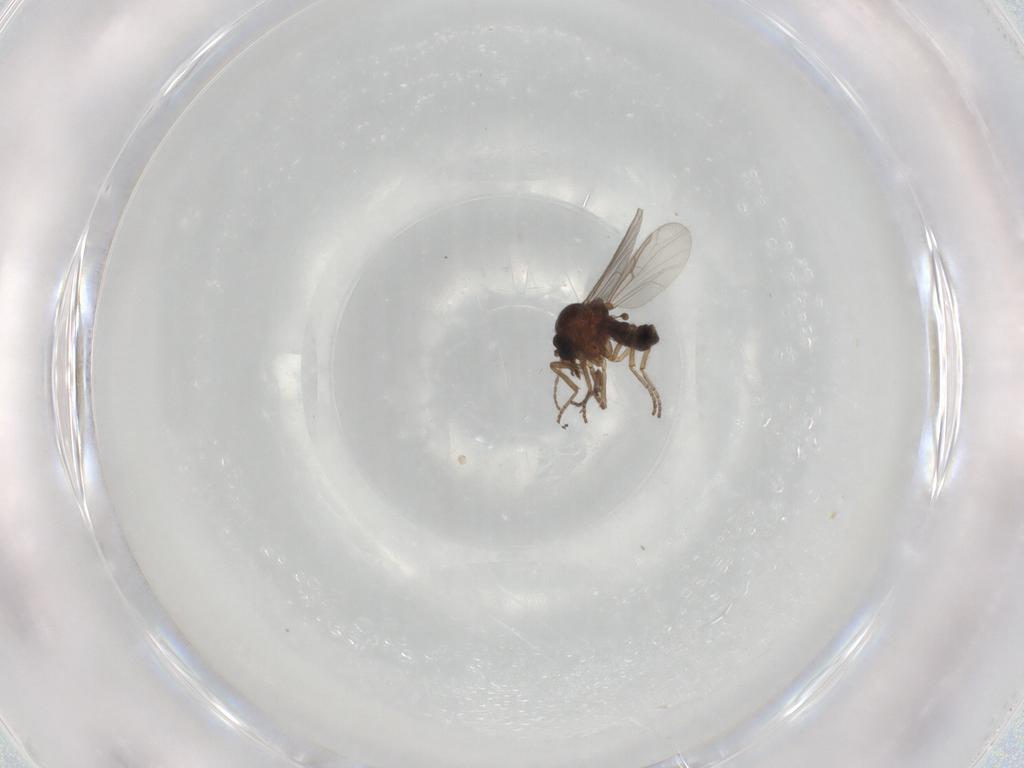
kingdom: Animalia
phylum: Arthropoda
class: Insecta
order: Diptera
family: Ceratopogonidae
